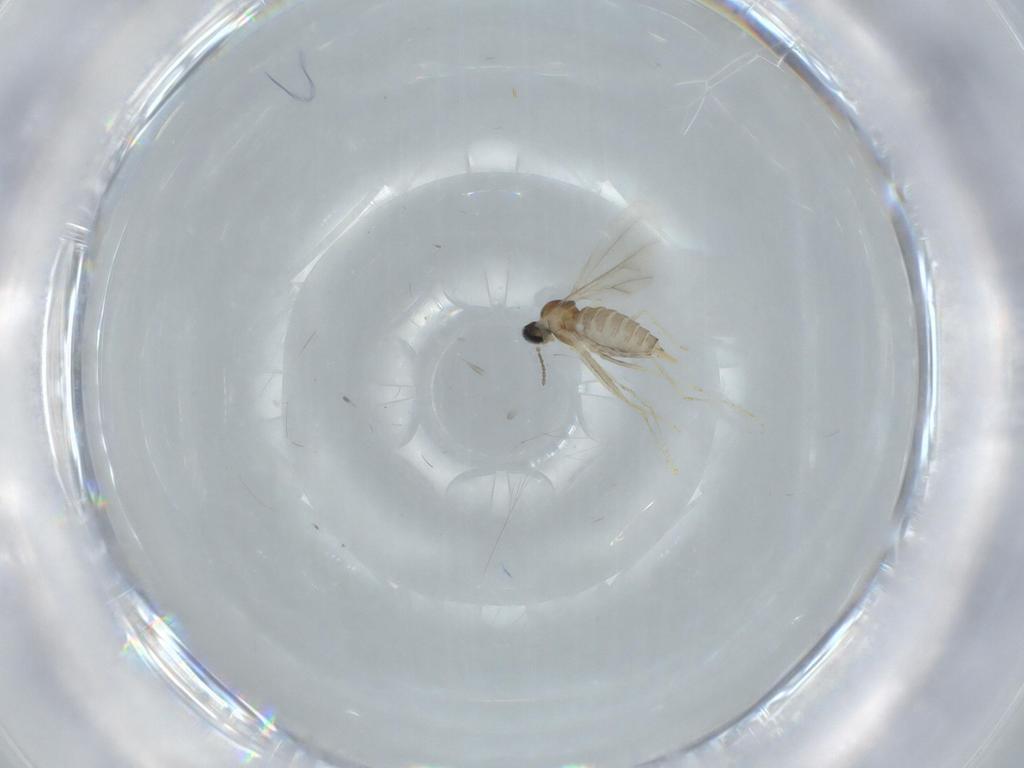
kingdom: Animalia
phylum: Arthropoda
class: Insecta
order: Diptera
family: Cecidomyiidae
